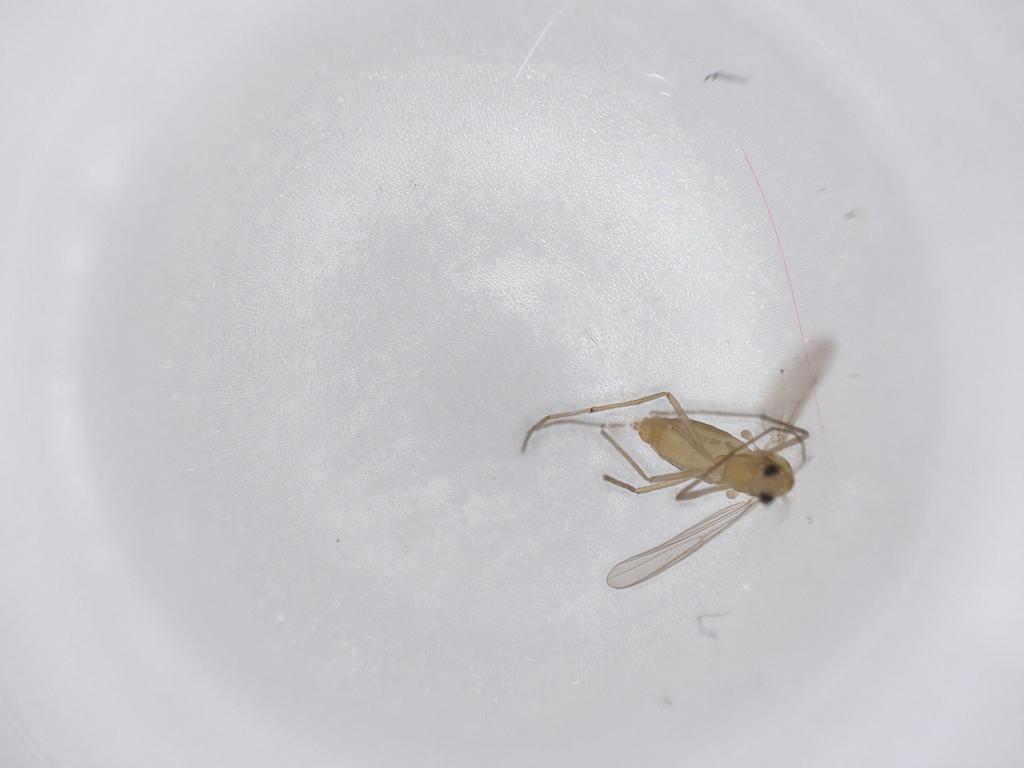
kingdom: Animalia
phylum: Arthropoda
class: Insecta
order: Diptera
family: Chironomidae
